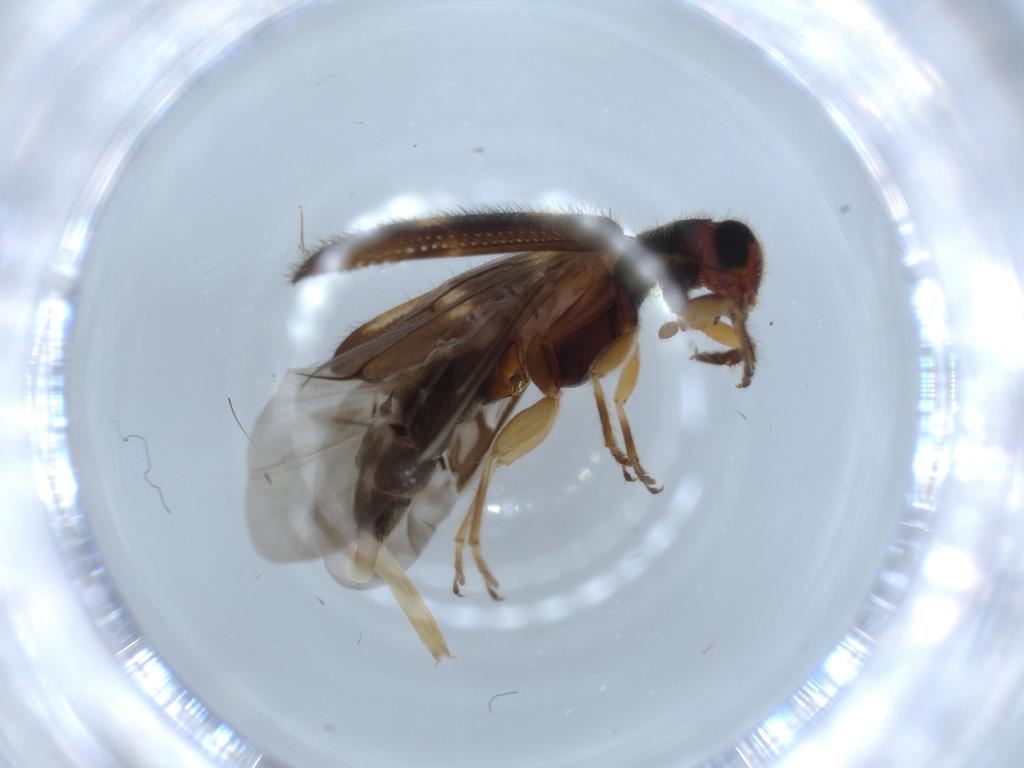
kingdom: Animalia
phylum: Arthropoda
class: Insecta
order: Coleoptera
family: Cleridae
